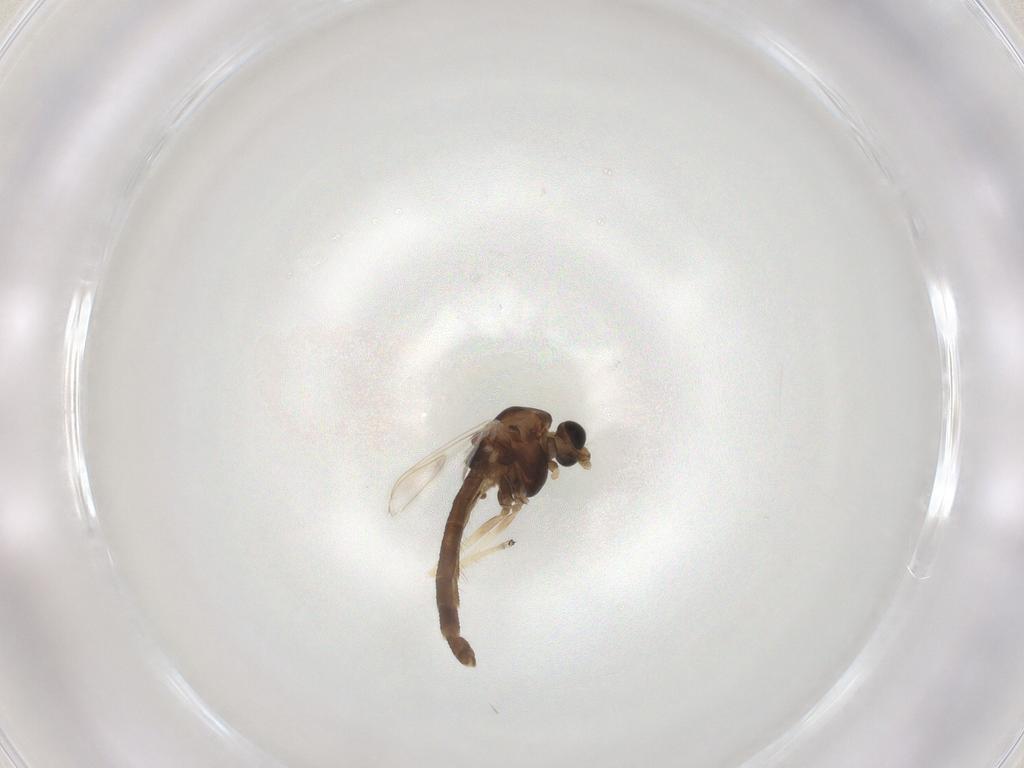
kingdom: Animalia
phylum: Arthropoda
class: Insecta
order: Diptera
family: Chironomidae
